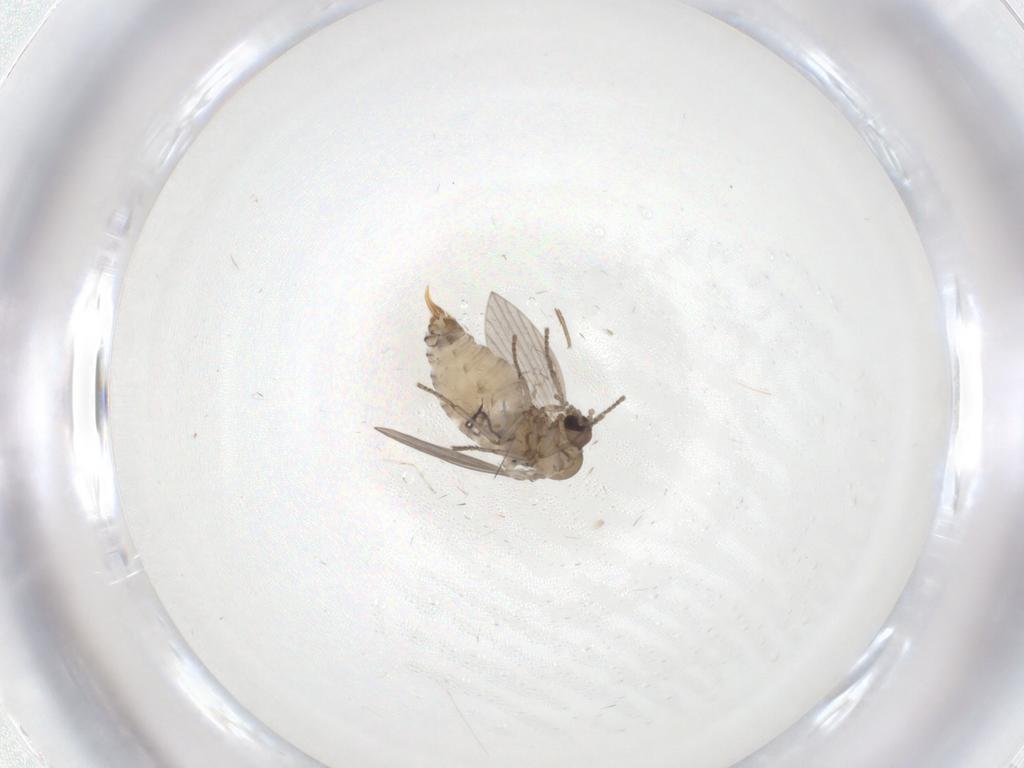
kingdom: Animalia
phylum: Arthropoda
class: Insecta
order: Diptera
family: Psychodidae
